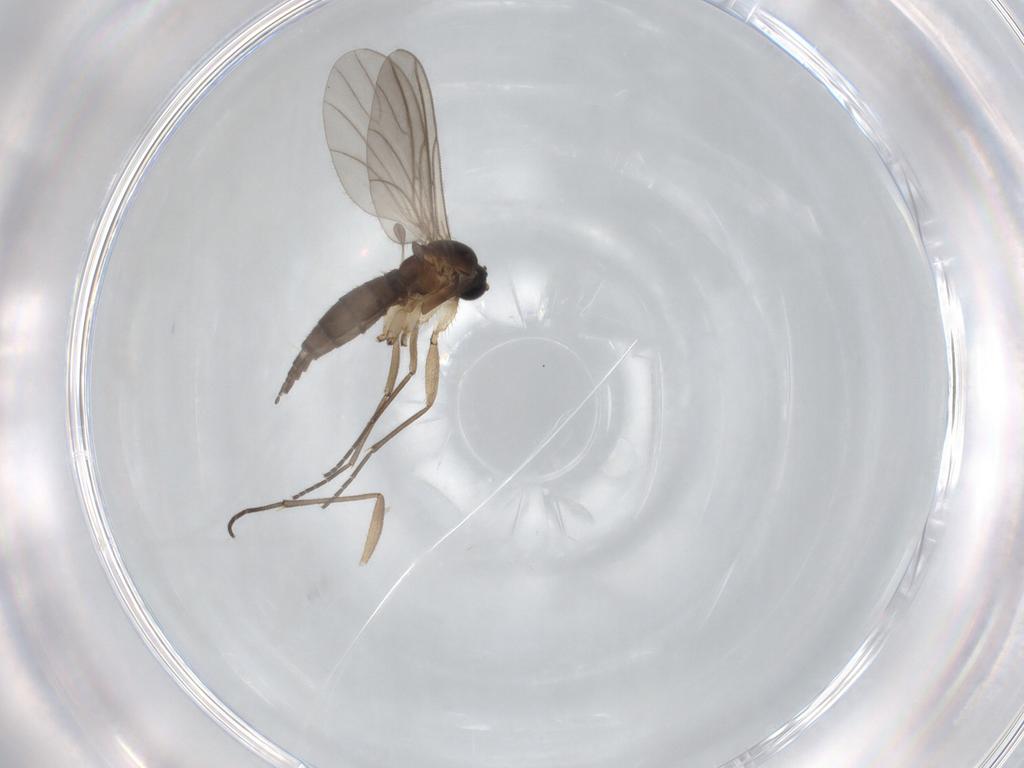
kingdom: Animalia
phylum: Arthropoda
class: Insecta
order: Diptera
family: Sciaridae
